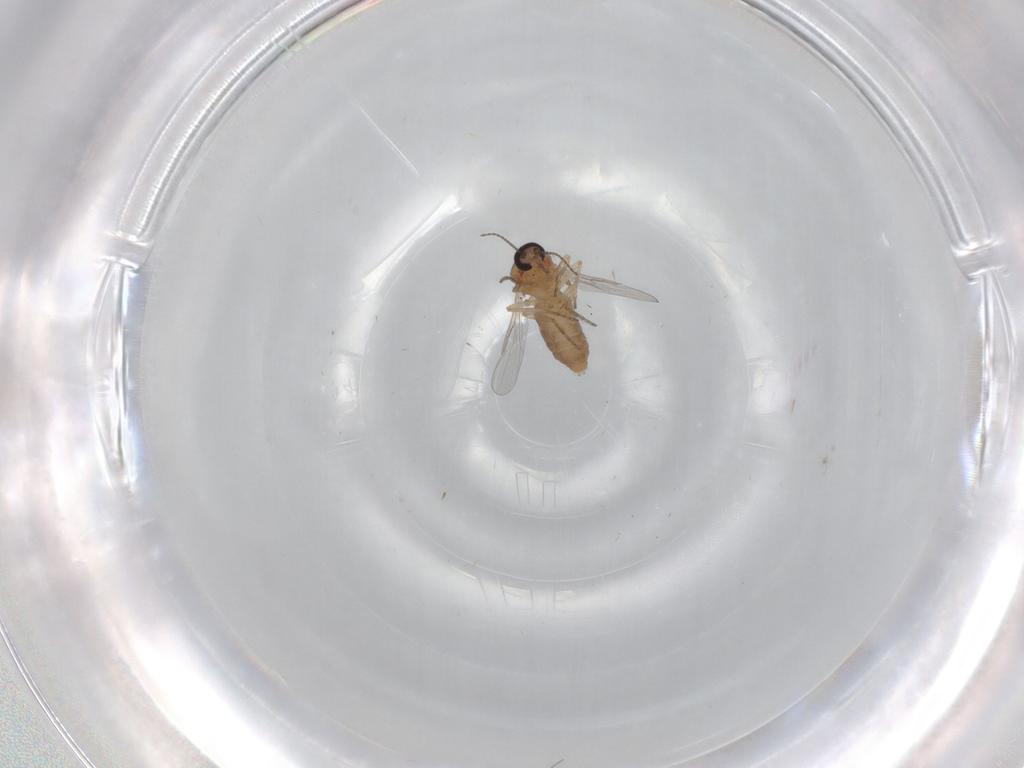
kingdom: Animalia
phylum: Arthropoda
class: Insecta
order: Diptera
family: Ceratopogonidae
